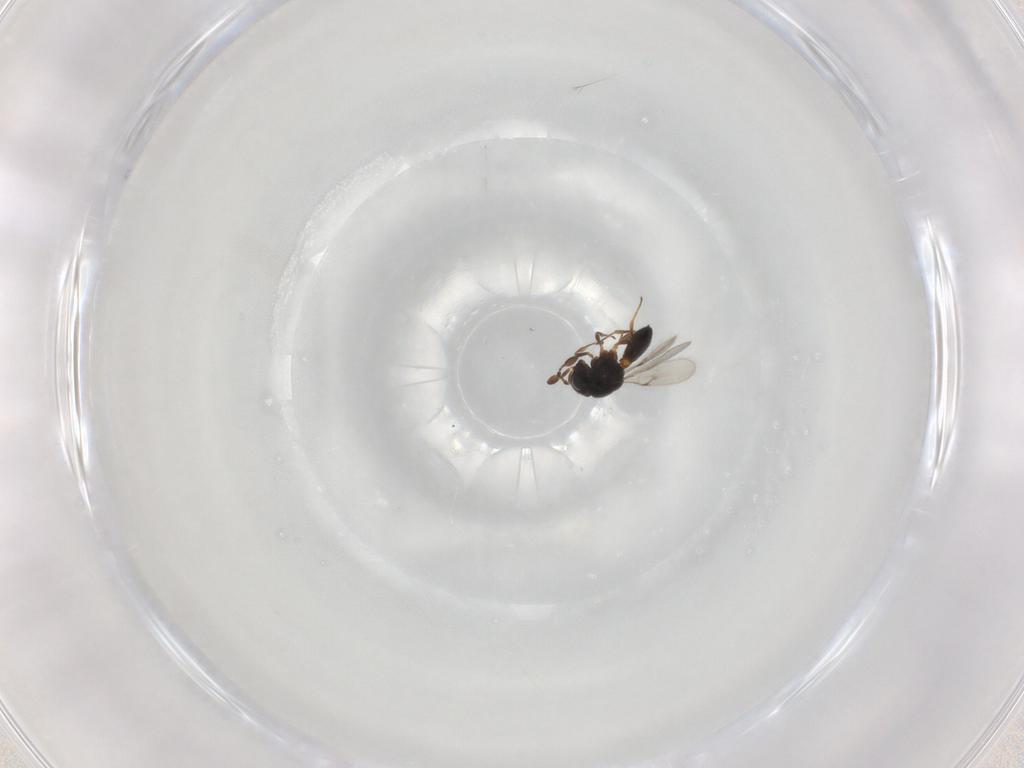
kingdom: Animalia
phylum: Arthropoda
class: Insecta
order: Hymenoptera
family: Scelionidae
